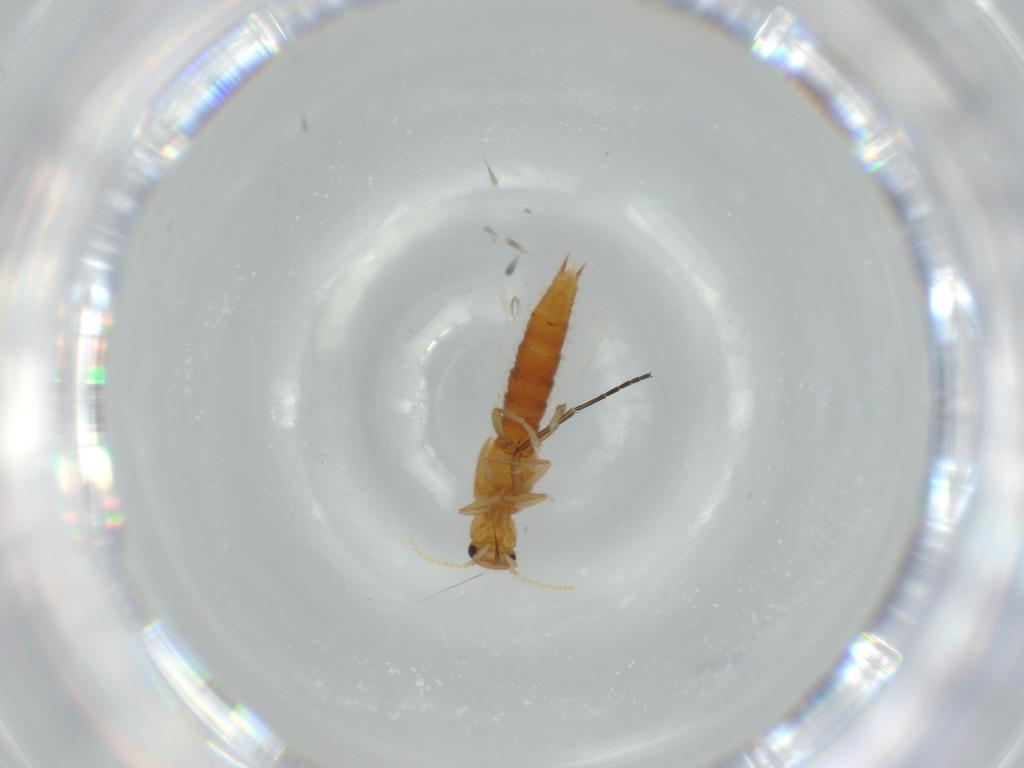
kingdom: Animalia
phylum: Arthropoda
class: Insecta
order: Coleoptera
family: Staphylinidae
